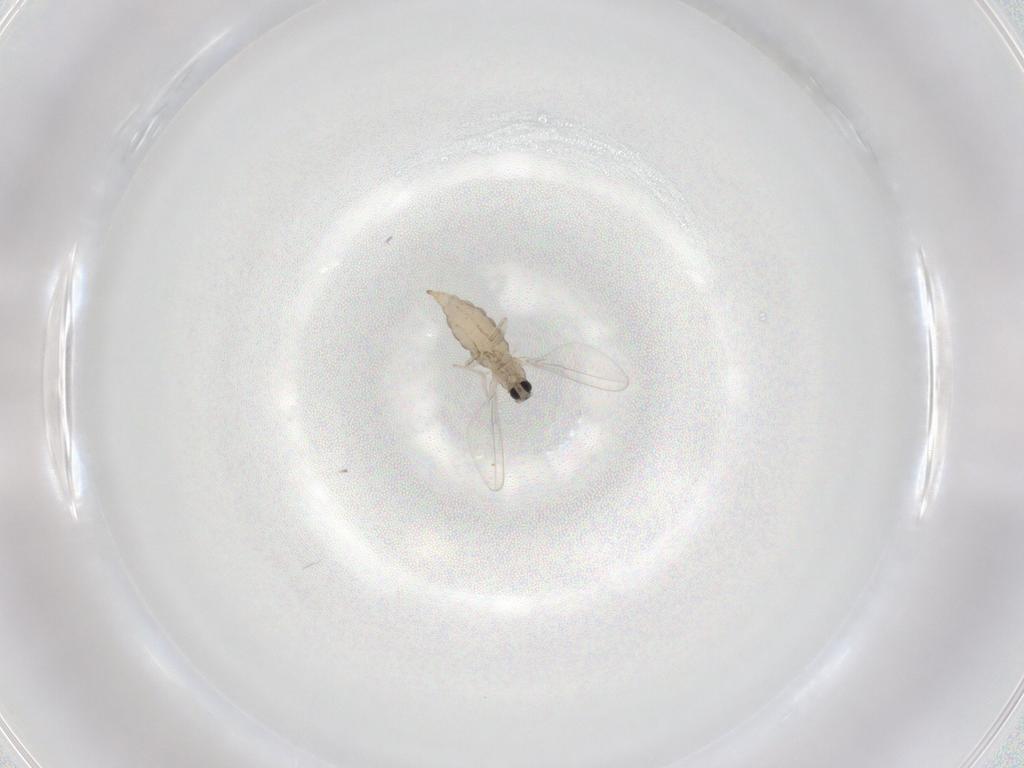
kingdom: Animalia
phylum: Arthropoda
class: Insecta
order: Diptera
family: Cecidomyiidae
